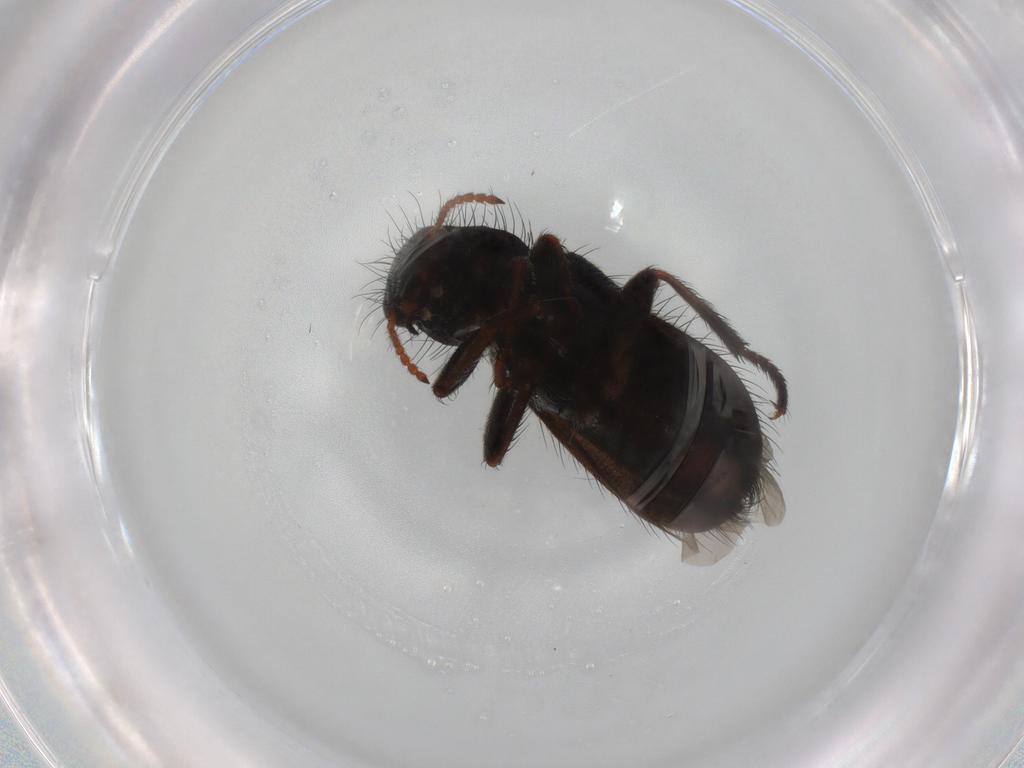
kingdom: Animalia
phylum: Arthropoda
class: Insecta
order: Coleoptera
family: Melyridae
